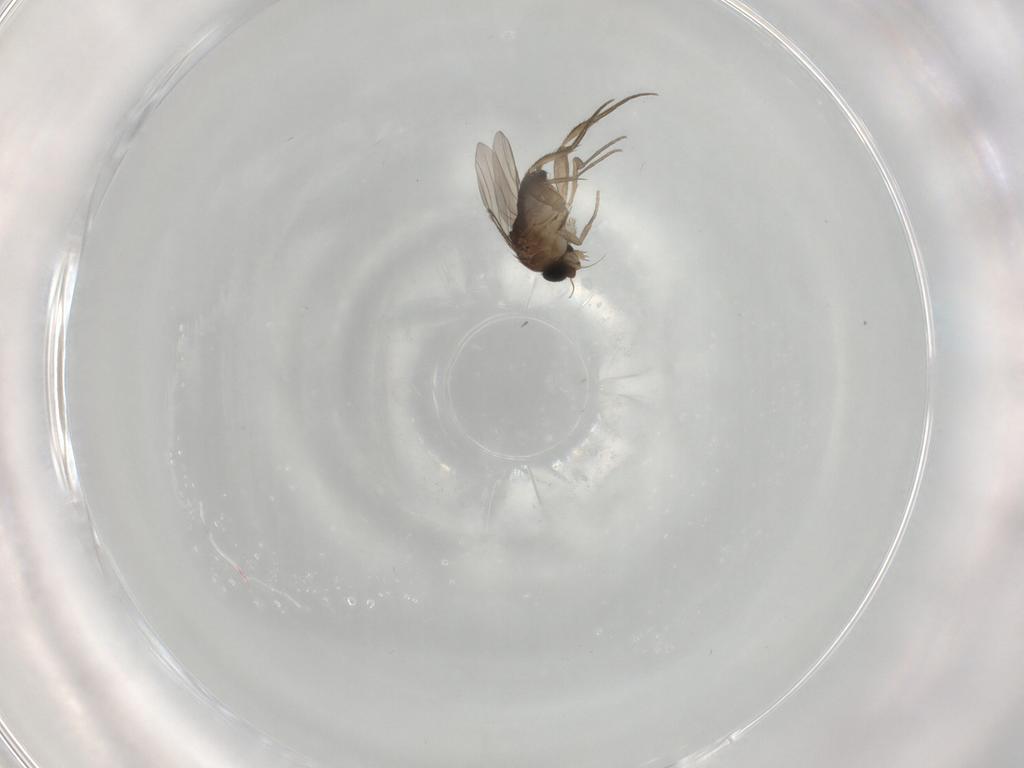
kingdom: Animalia
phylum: Arthropoda
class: Insecta
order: Diptera
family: Phoridae
